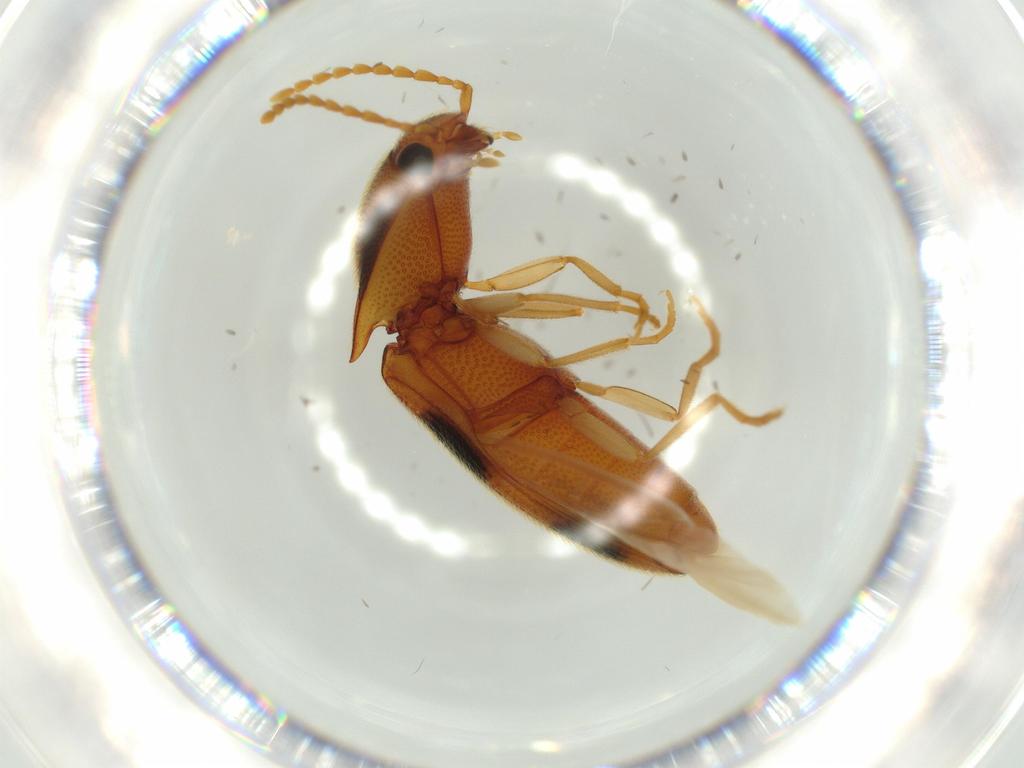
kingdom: Animalia
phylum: Arthropoda
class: Insecta
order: Coleoptera
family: Elateridae
